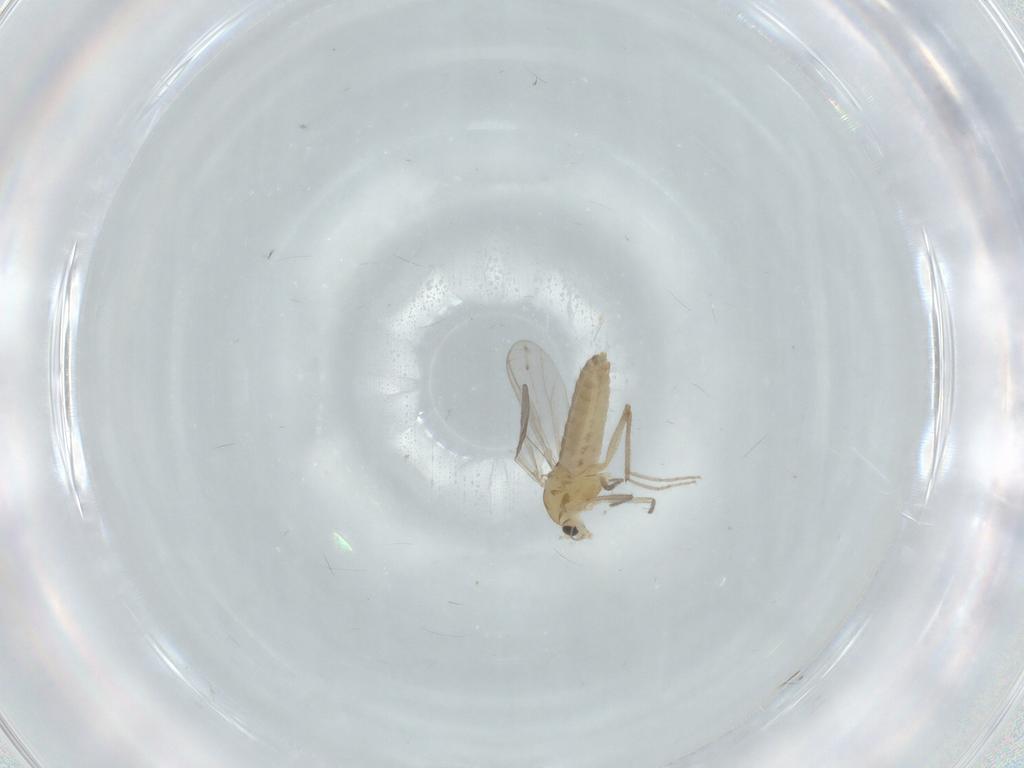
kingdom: Animalia
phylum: Arthropoda
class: Insecta
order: Diptera
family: Chironomidae
